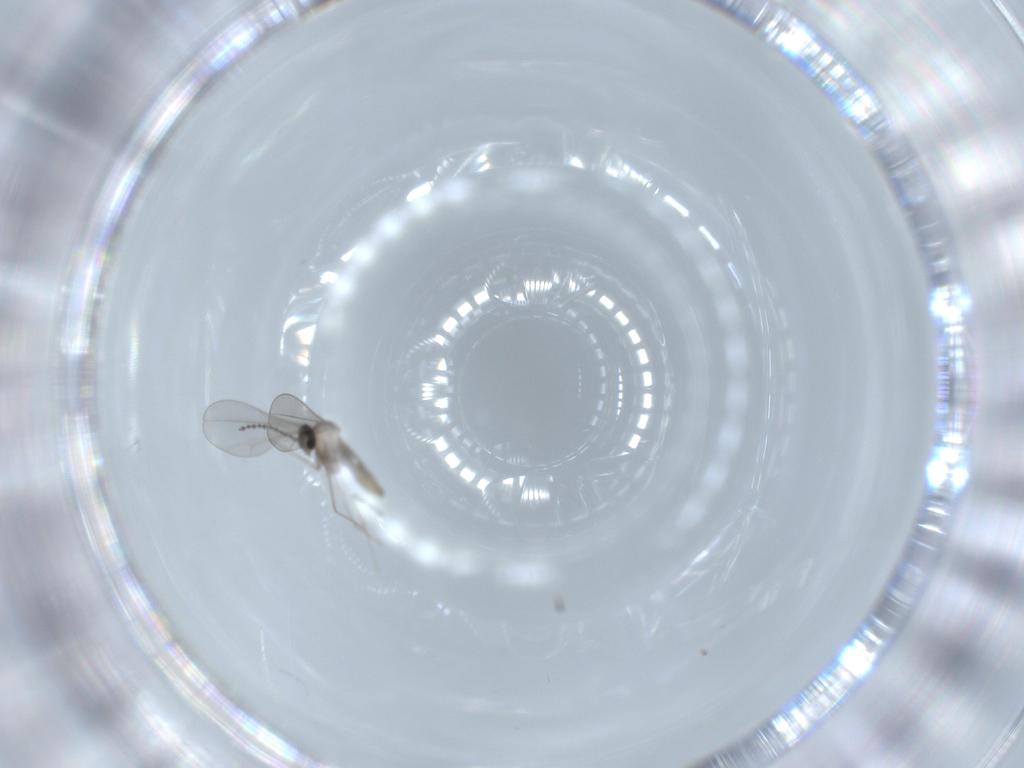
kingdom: Animalia
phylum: Arthropoda
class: Insecta
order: Diptera
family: Cecidomyiidae
